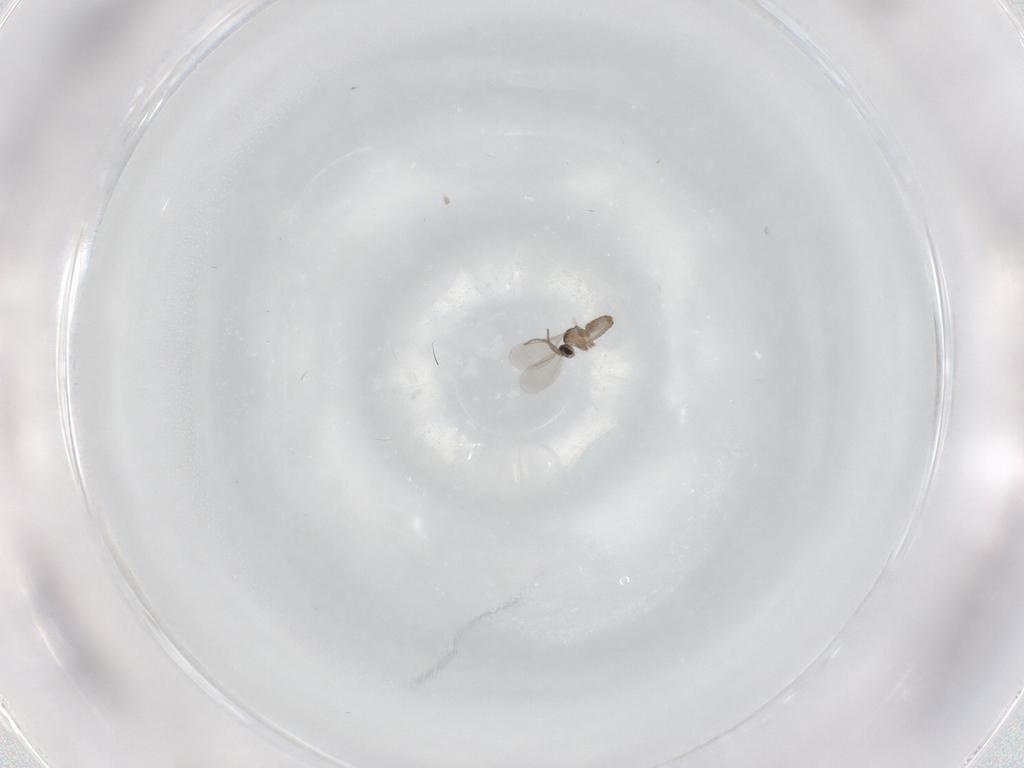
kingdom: Animalia
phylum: Arthropoda
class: Insecta
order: Diptera
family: Cecidomyiidae
